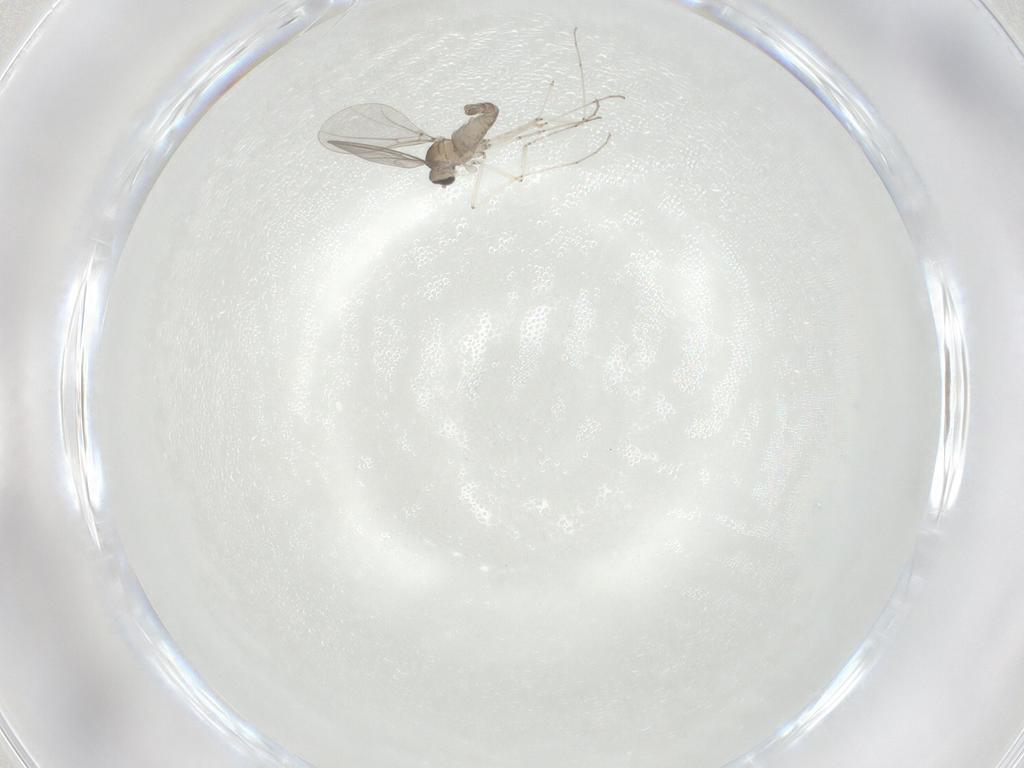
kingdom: Animalia
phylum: Arthropoda
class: Insecta
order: Diptera
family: Cecidomyiidae
